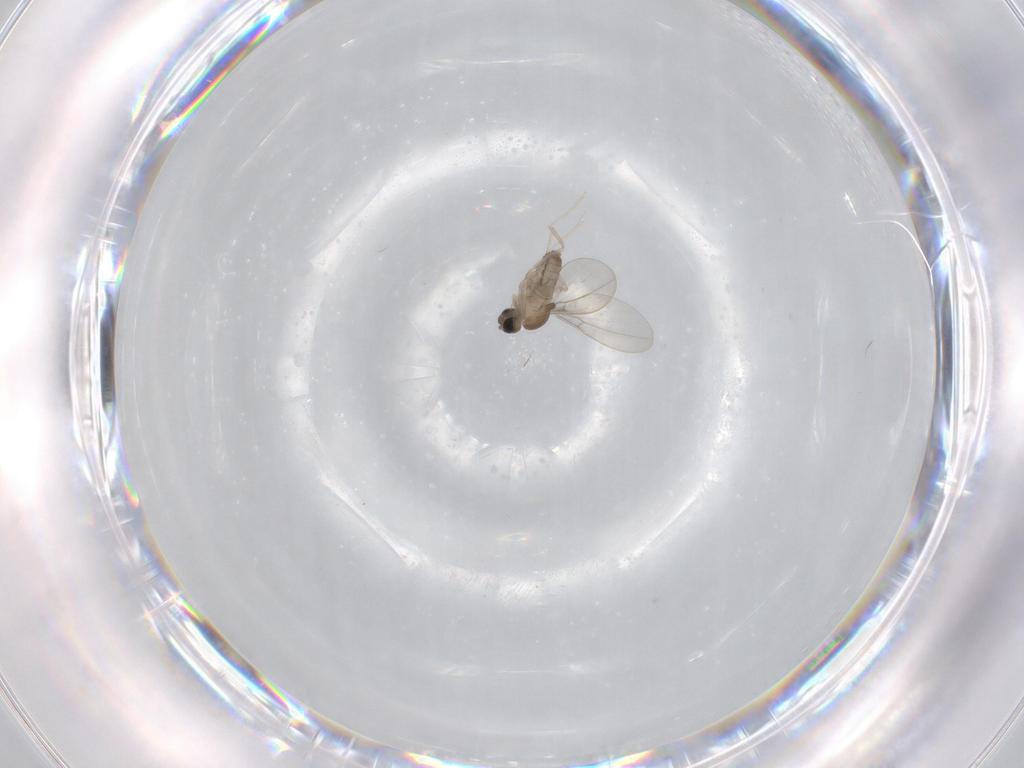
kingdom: Animalia
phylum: Arthropoda
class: Insecta
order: Diptera
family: Cecidomyiidae
